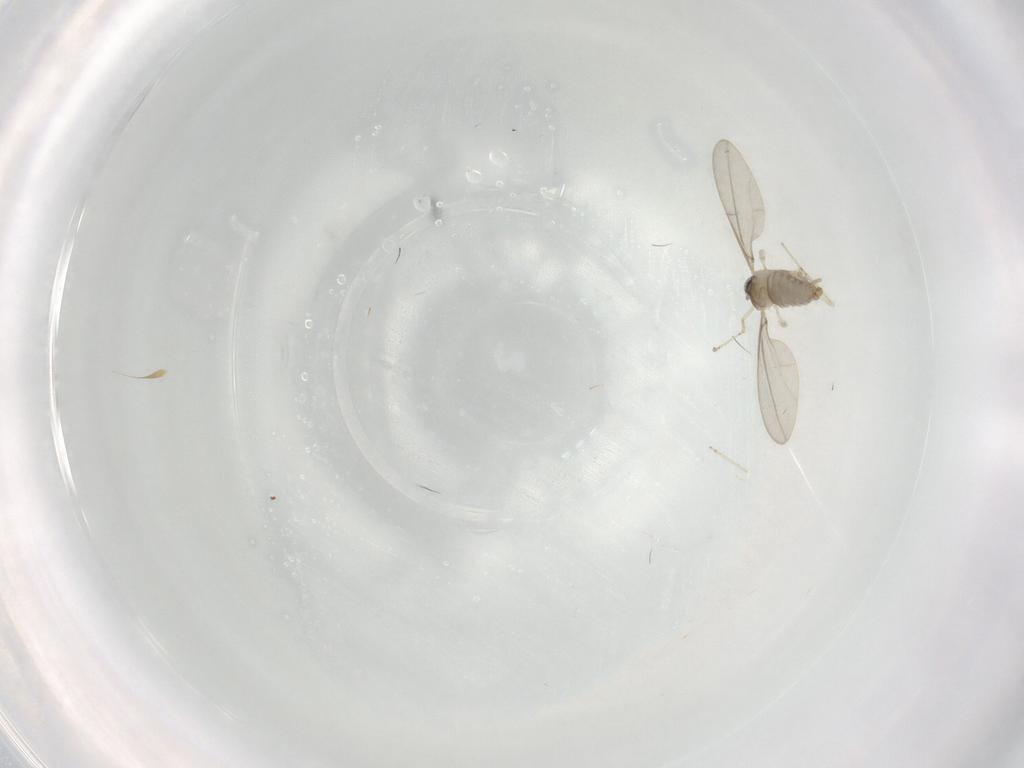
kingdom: Animalia
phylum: Arthropoda
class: Insecta
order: Diptera
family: Cecidomyiidae
